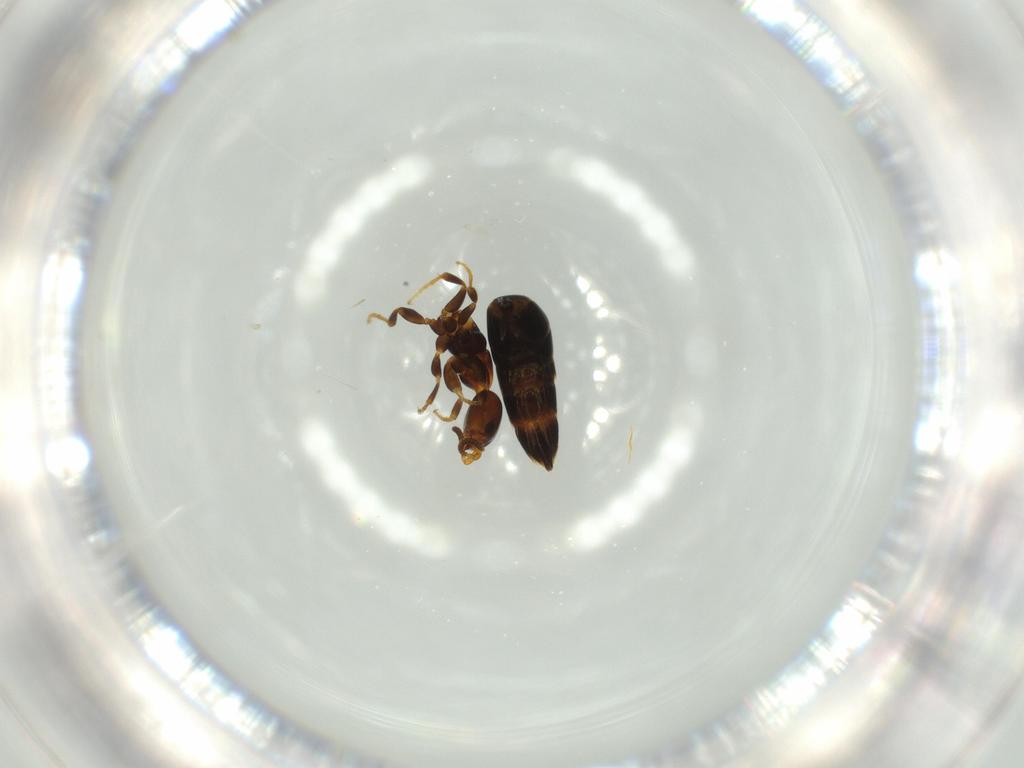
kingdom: Animalia
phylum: Arthropoda
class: Insecta
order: Hymenoptera
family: Bethylidae
